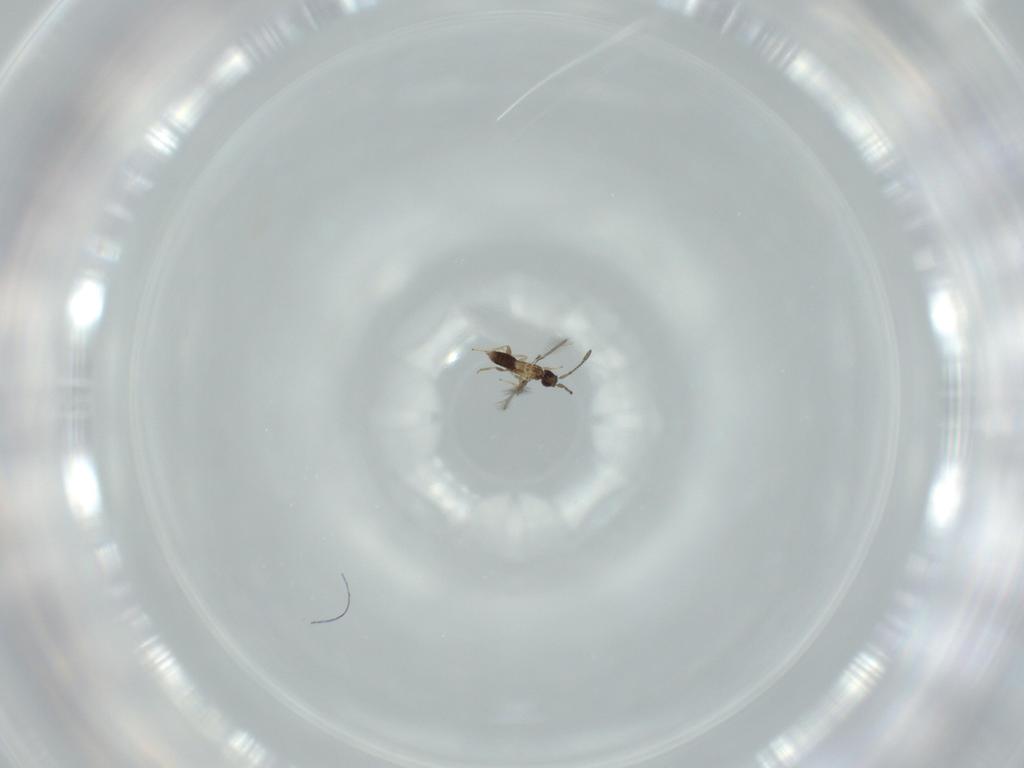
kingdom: Animalia
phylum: Arthropoda
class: Insecta
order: Hymenoptera
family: Mymaridae
